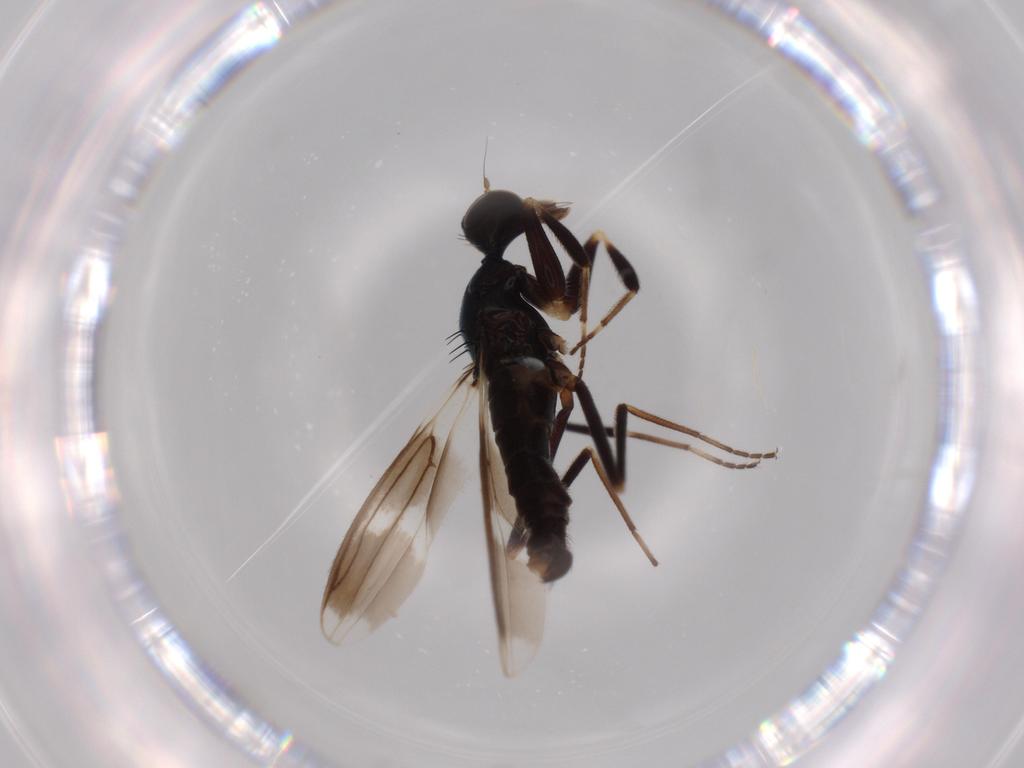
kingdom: Animalia
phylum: Arthropoda
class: Insecta
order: Diptera
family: Hybotidae
